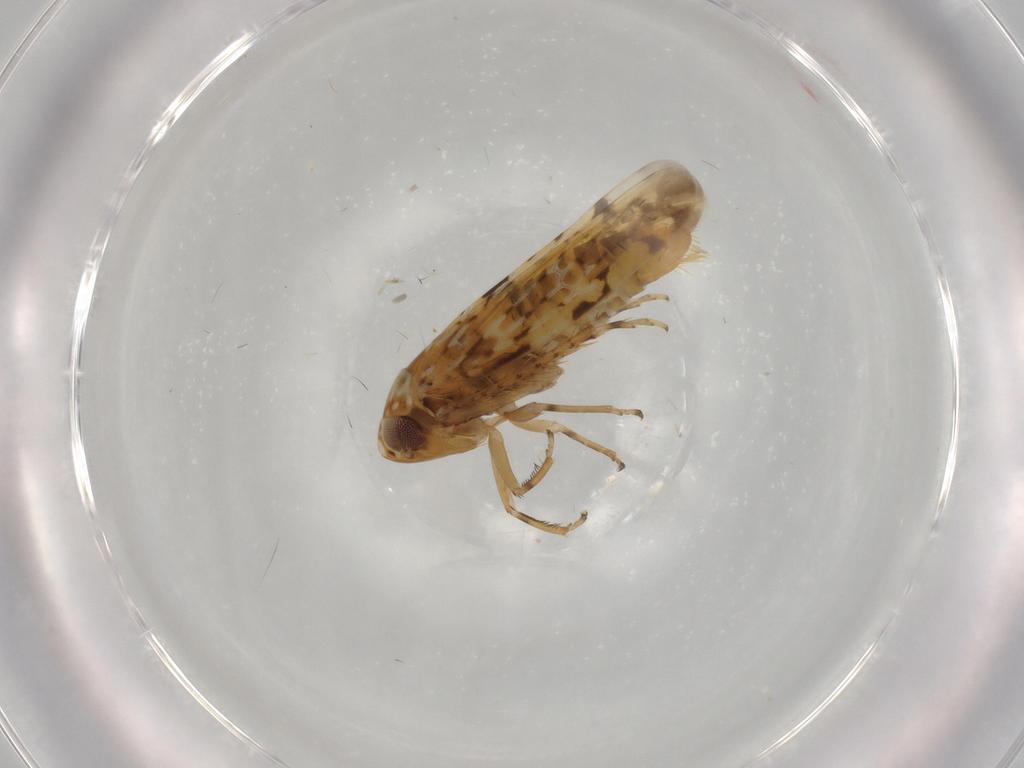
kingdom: Animalia
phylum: Arthropoda
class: Insecta
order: Hemiptera
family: Cicadellidae
